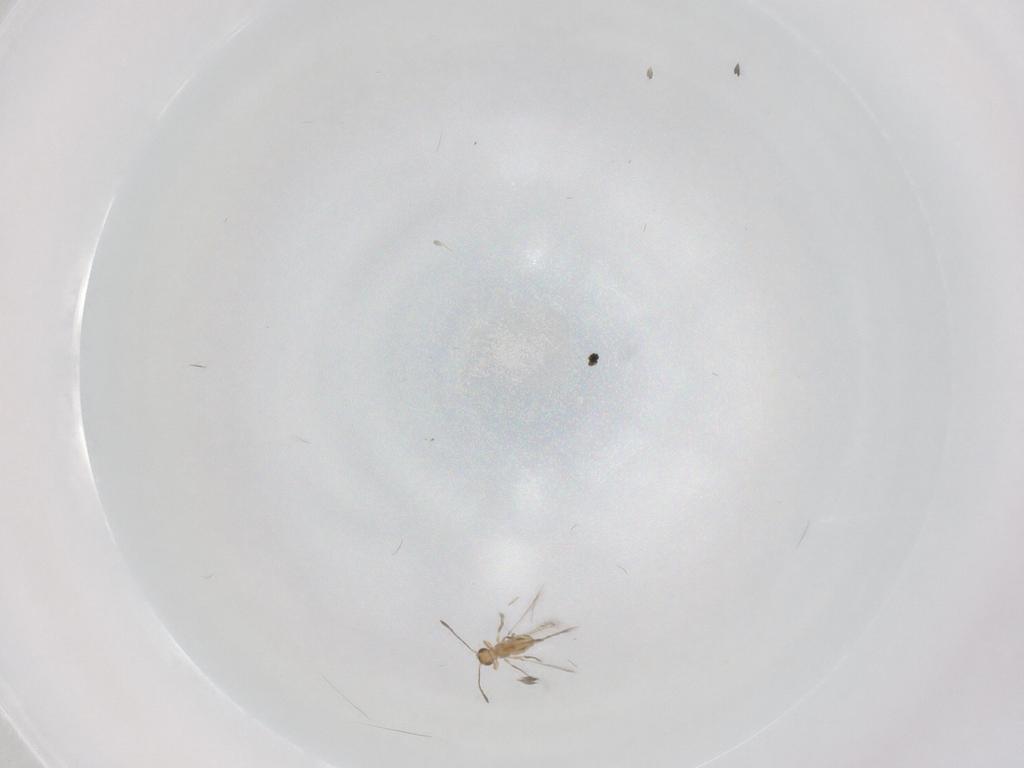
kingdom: Animalia
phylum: Arthropoda
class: Insecta
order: Hymenoptera
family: Mymaridae
